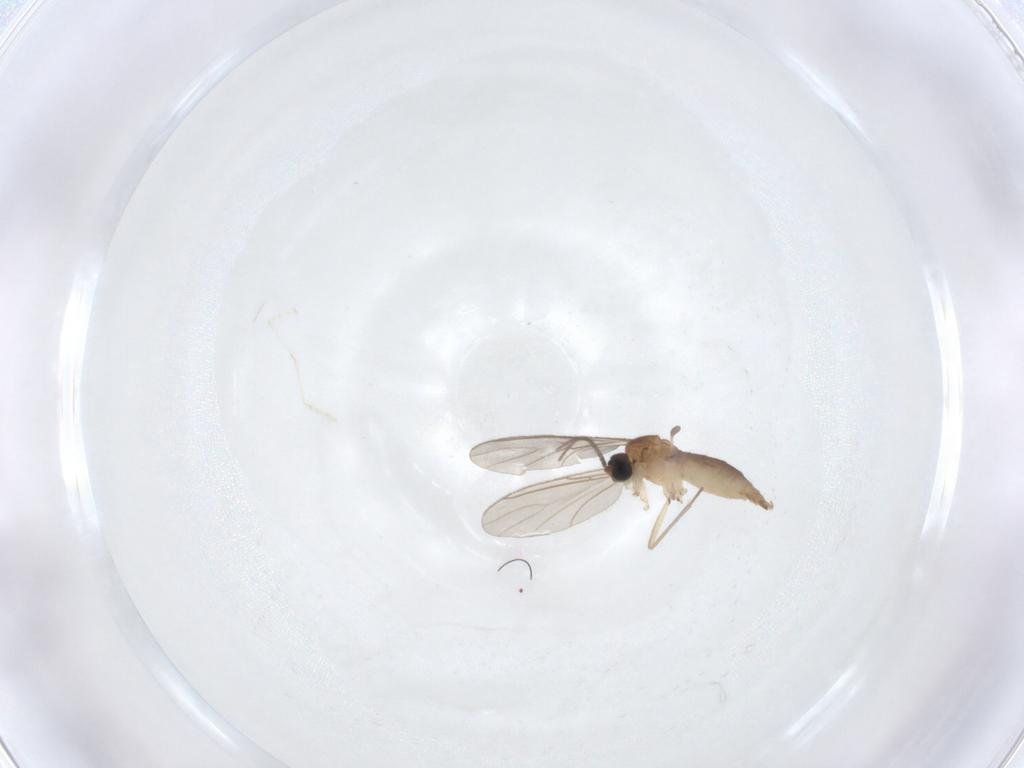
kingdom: Animalia
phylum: Arthropoda
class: Insecta
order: Diptera
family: Sciaridae
